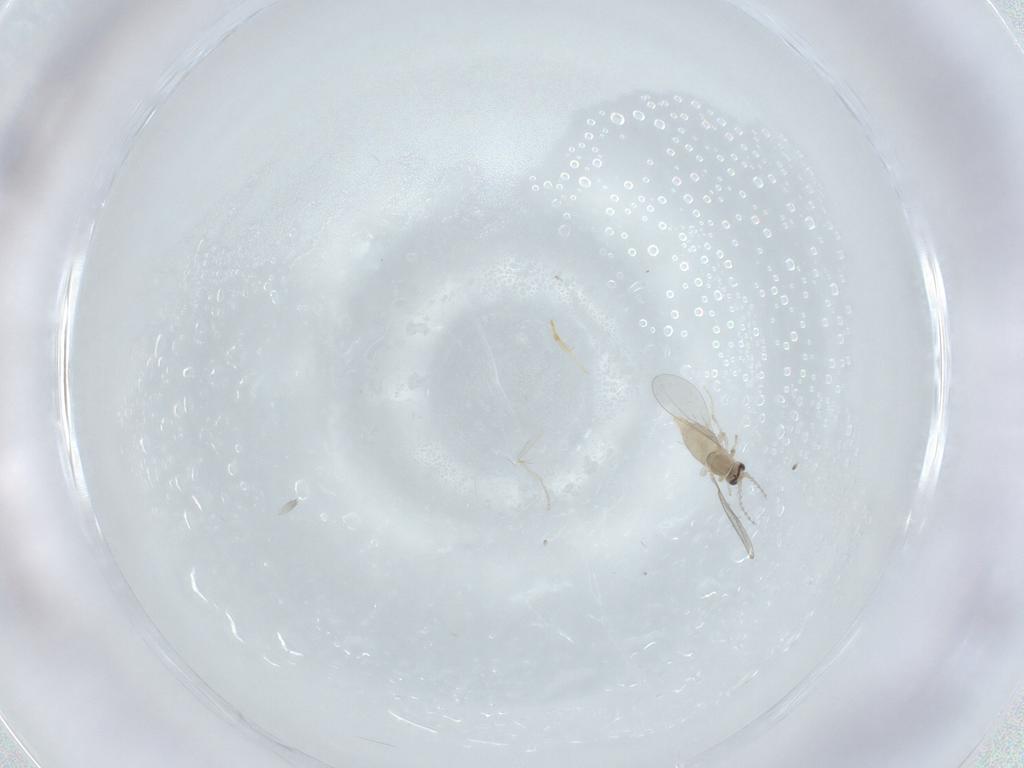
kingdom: Animalia
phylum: Arthropoda
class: Insecta
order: Diptera
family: Cecidomyiidae
